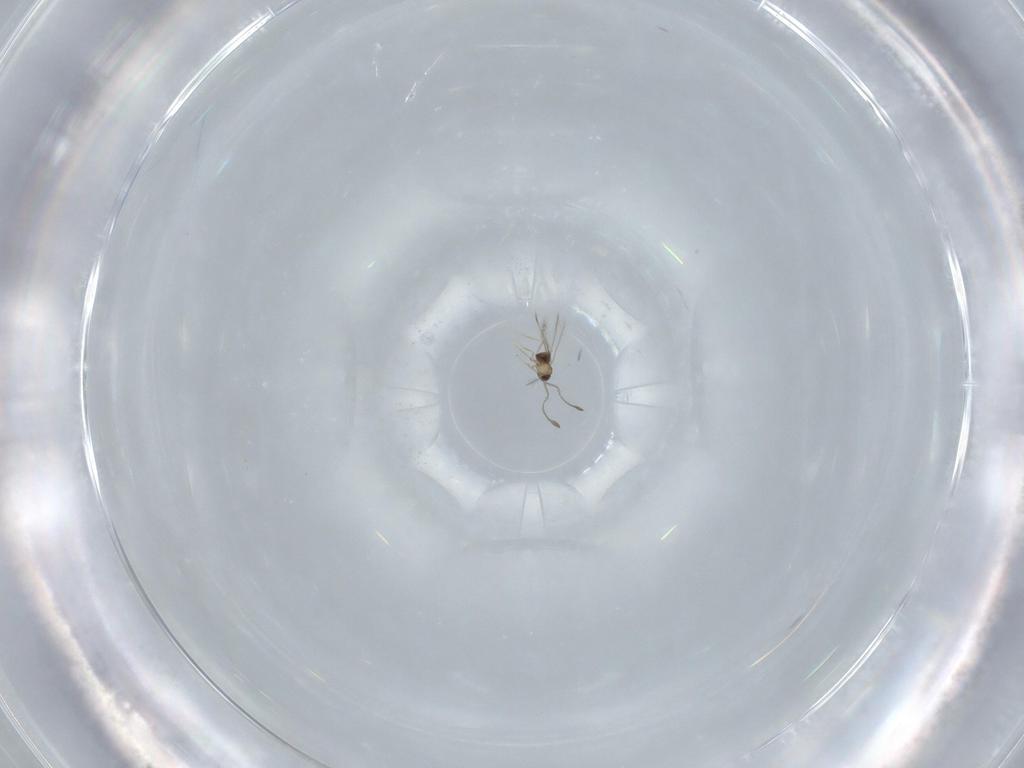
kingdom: Animalia
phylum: Arthropoda
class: Insecta
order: Hymenoptera
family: Mymaridae
